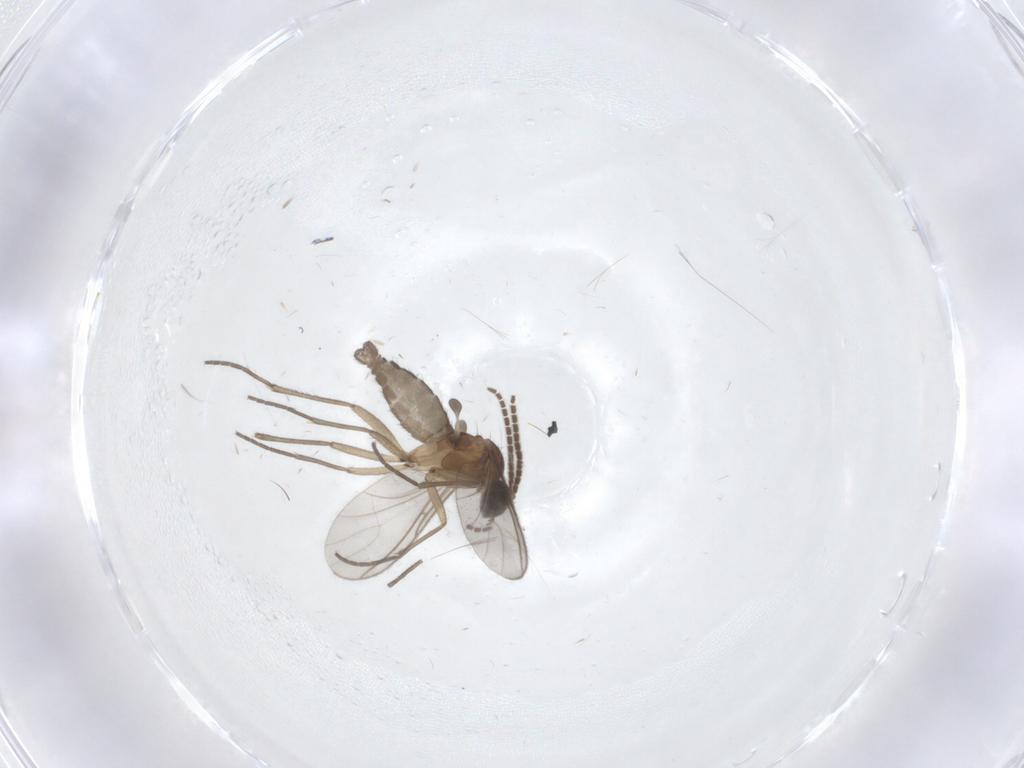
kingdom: Animalia
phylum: Arthropoda
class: Insecta
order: Diptera
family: Sciaridae
